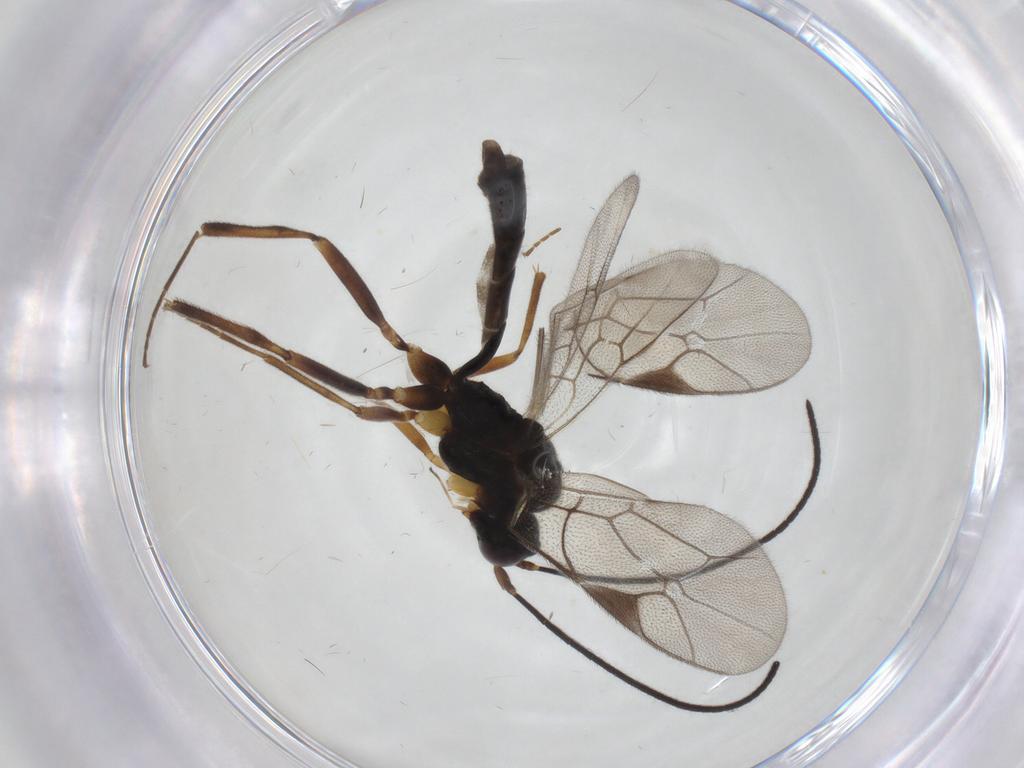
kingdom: Animalia
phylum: Arthropoda
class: Insecta
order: Hymenoptera
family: Ichneumonidae
